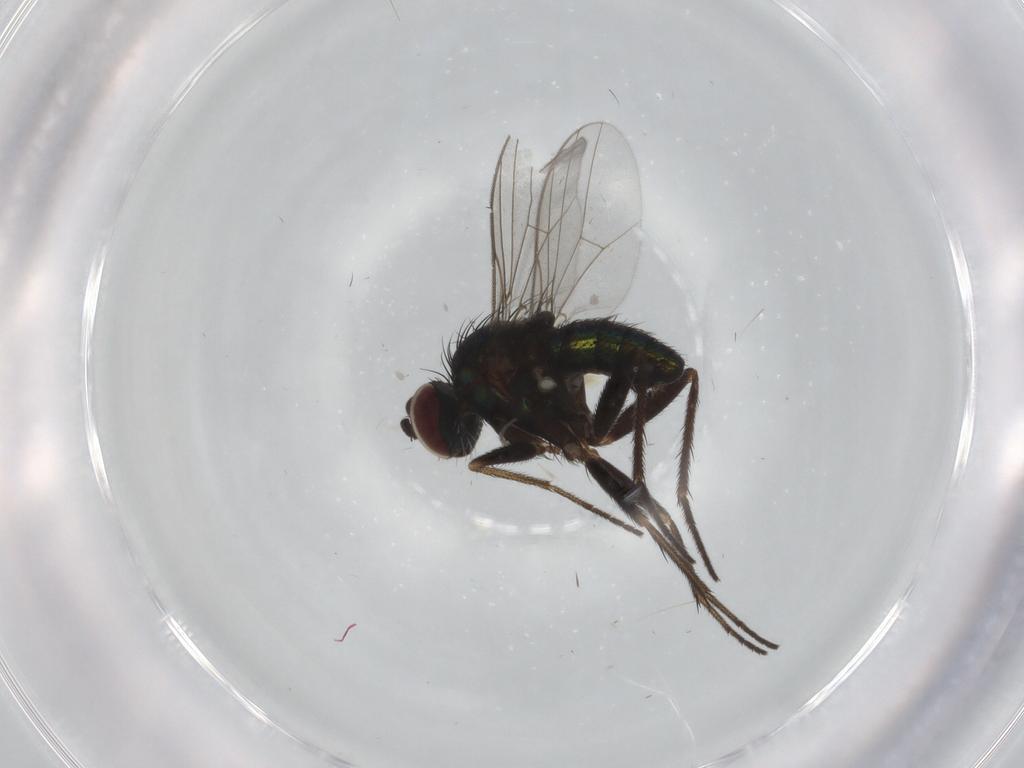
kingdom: Animalia
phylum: Arthropoda
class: Insecta
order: Diptera
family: Dolichopodidae
